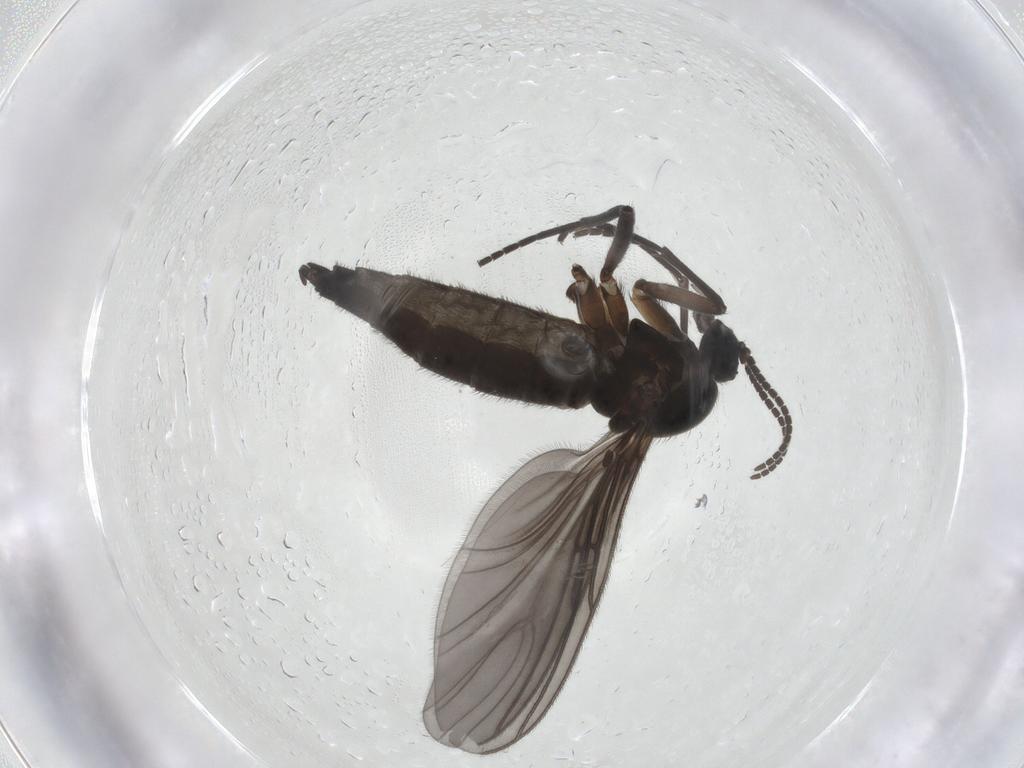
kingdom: Animalia
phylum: Arthropoda
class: Insecta
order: Diptera
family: Sciaridae
